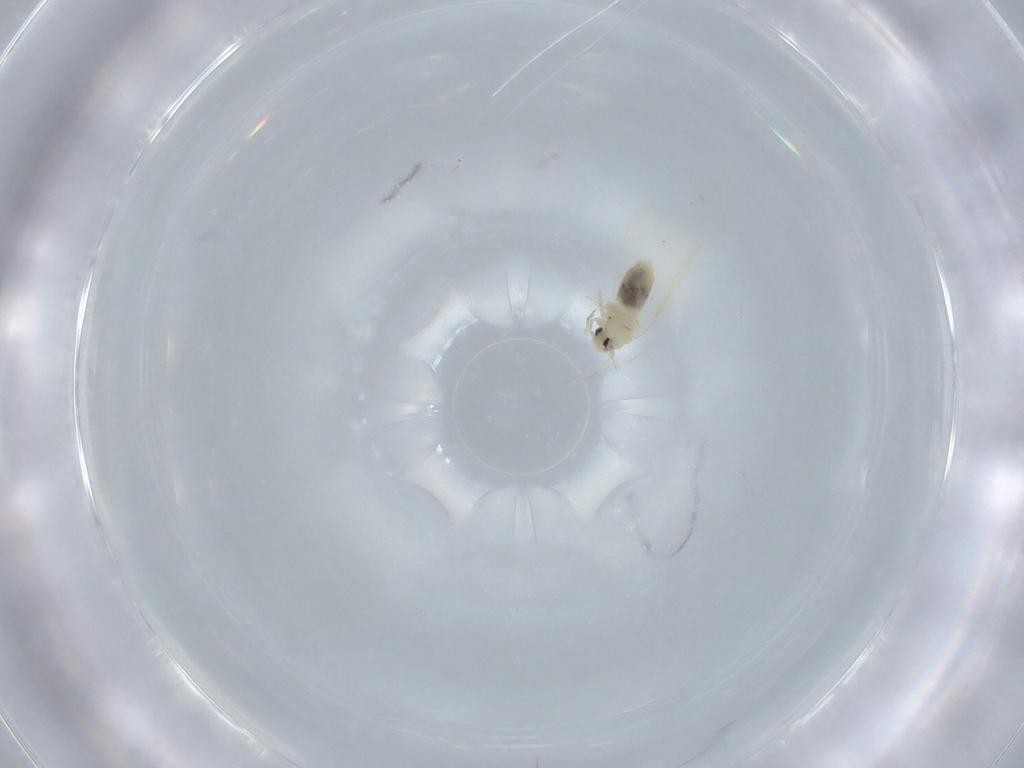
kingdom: Animalia
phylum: Arthropoda
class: Insecta
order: Hemiptera
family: Aleyrodidae
